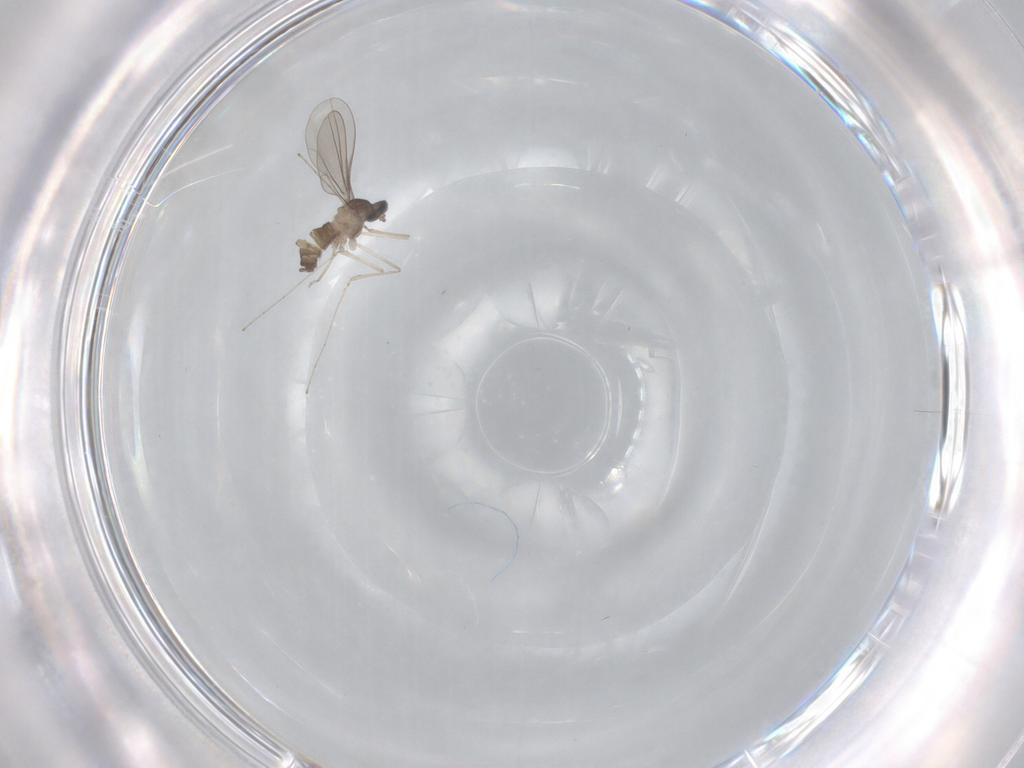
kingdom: Animalia
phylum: Arthropoda
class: Insecta
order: Diptera
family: Cecidomyiidae
